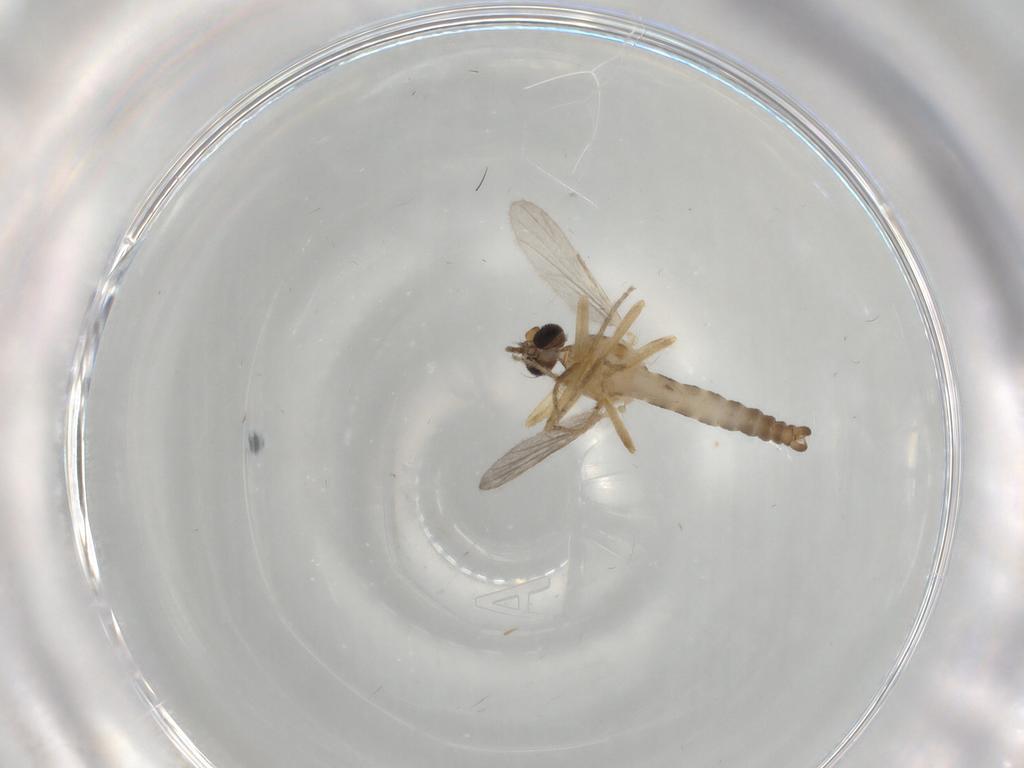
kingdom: Animalia
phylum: Arthropoda
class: Insecta
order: Diptera
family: Ceratopogonidae
